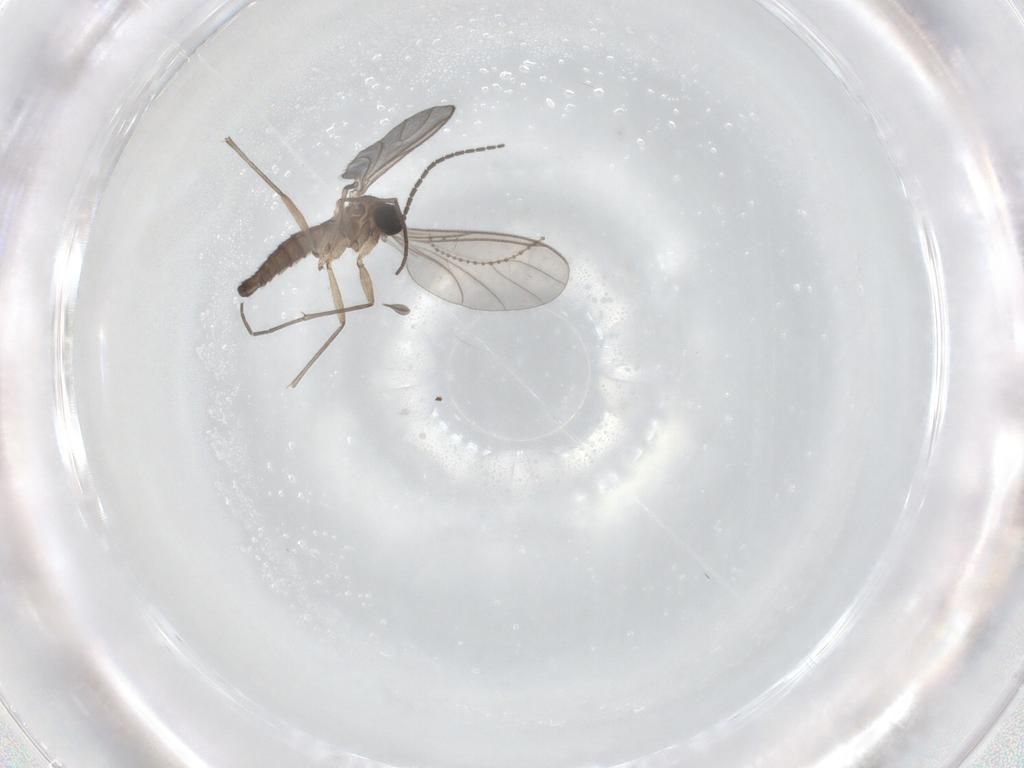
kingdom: Animalia
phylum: Arthropoda
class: Insecta
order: Diptera
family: Sciaridae
